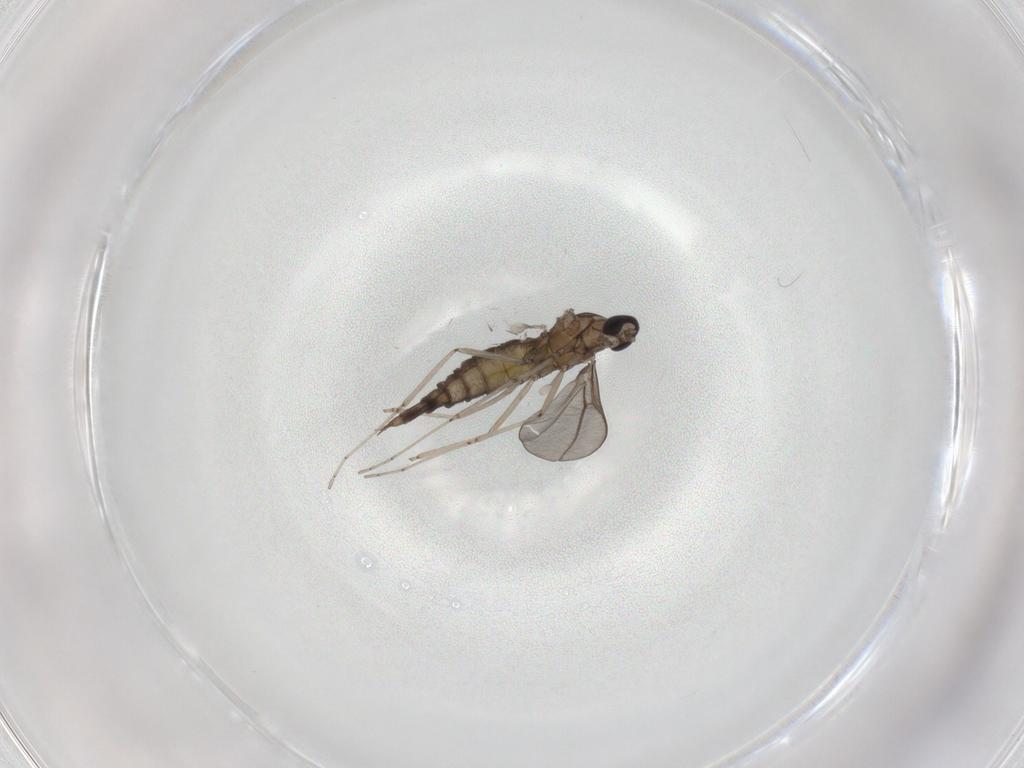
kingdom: Animalia
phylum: Arthropoda
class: Insecta
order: Diptera
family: Cecidomyiidae
